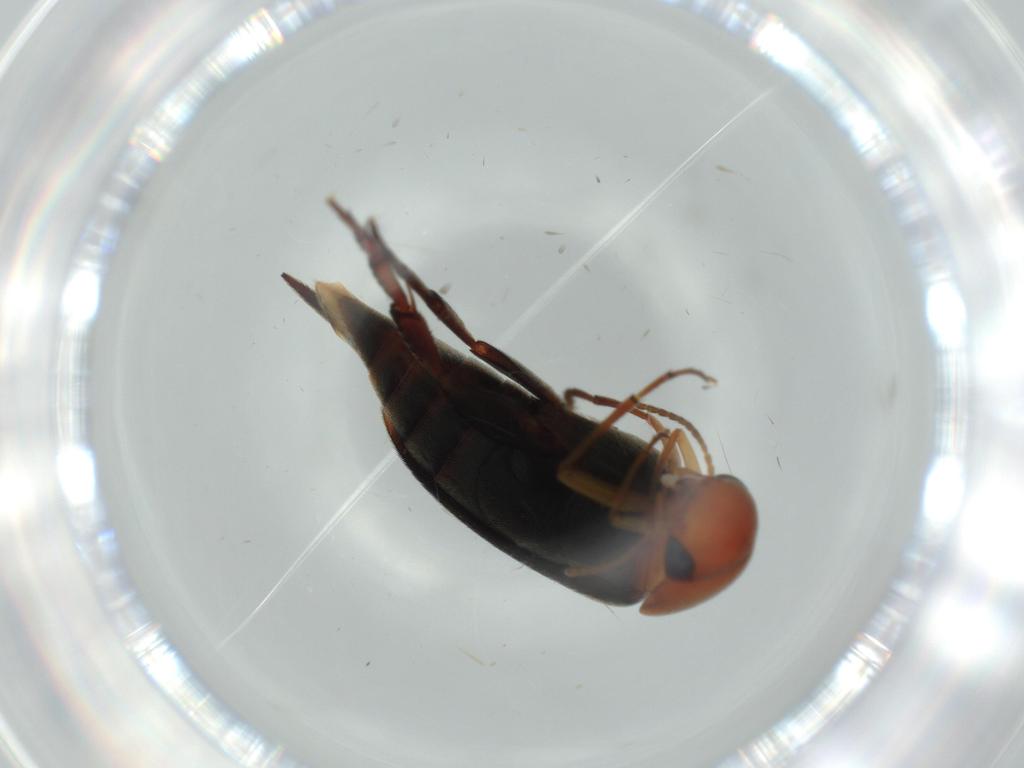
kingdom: Animalia
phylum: Arthropoda
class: Insecta
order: Coleoptera
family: Mordellidae
